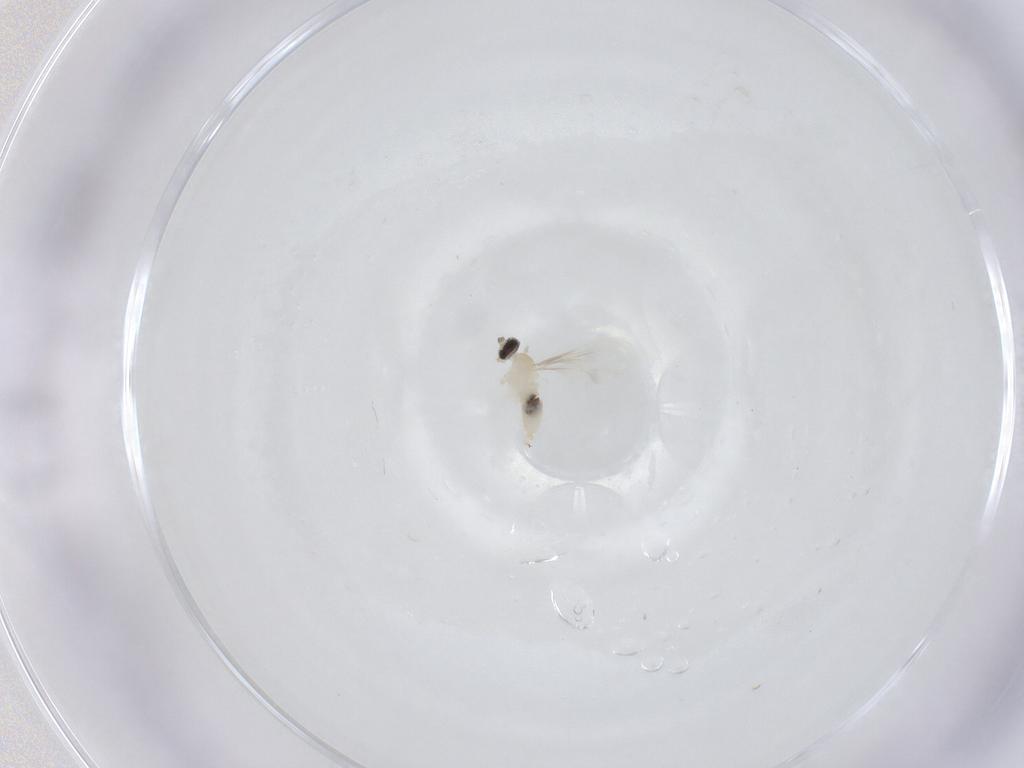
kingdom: Animalia
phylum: Arthropoda
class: Insecta
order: Diptera
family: Cecidomyiidae
